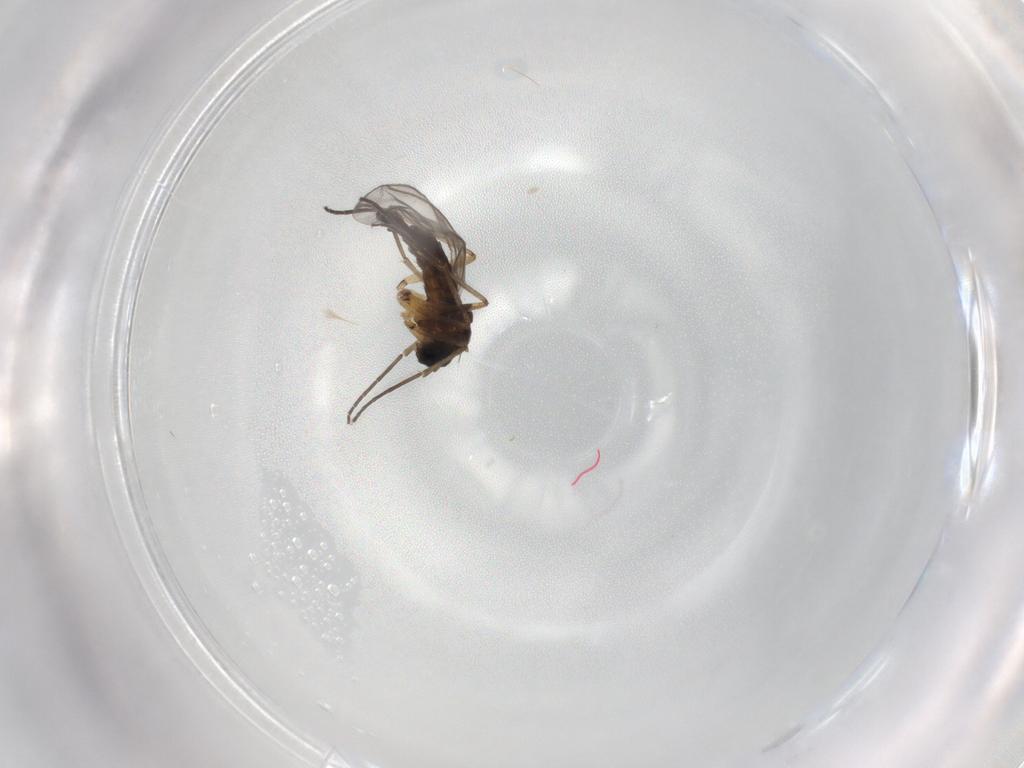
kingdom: Animalia
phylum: Arthropoda
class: Insecta
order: Diptera
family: Sciaridae
